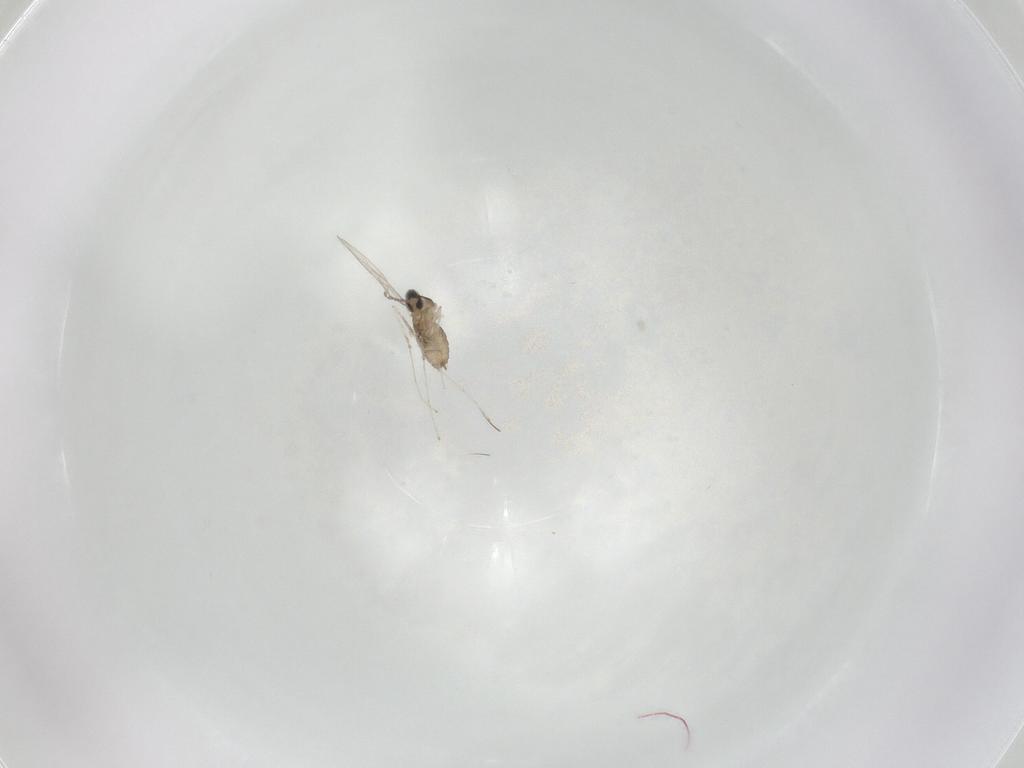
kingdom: Animalia
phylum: Arthropoda
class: Insecta
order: Diptera
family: Cecidomyiidae
